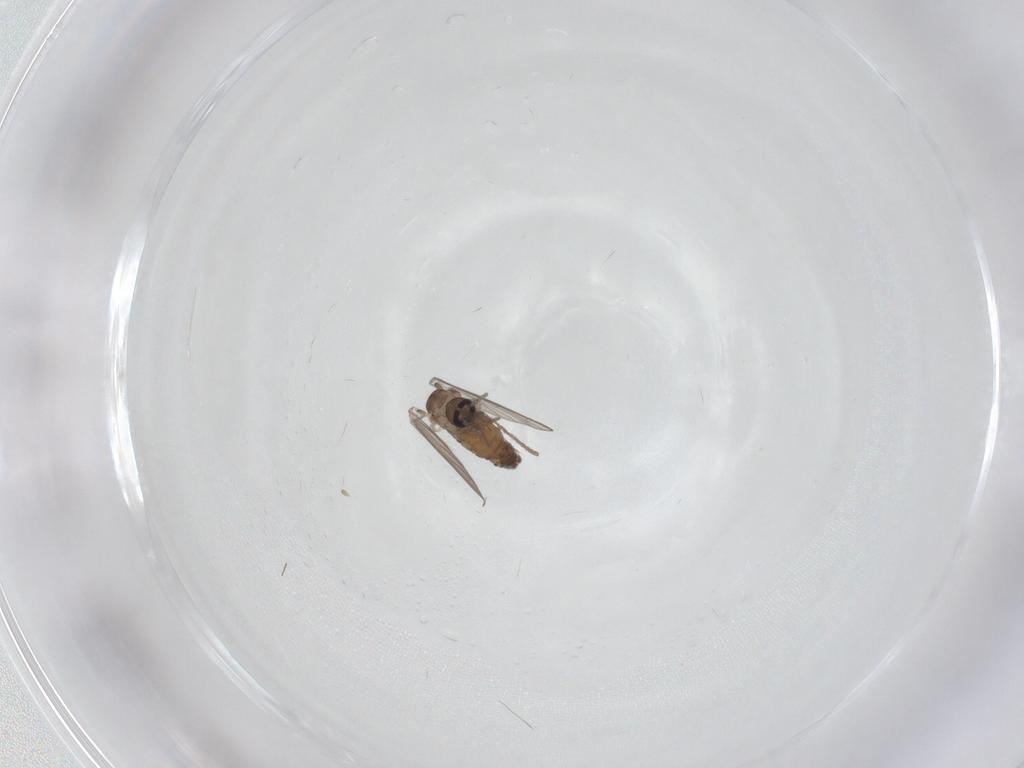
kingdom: Animalia
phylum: Arthropoda
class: Insecta
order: Diptera
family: Psychodidae
